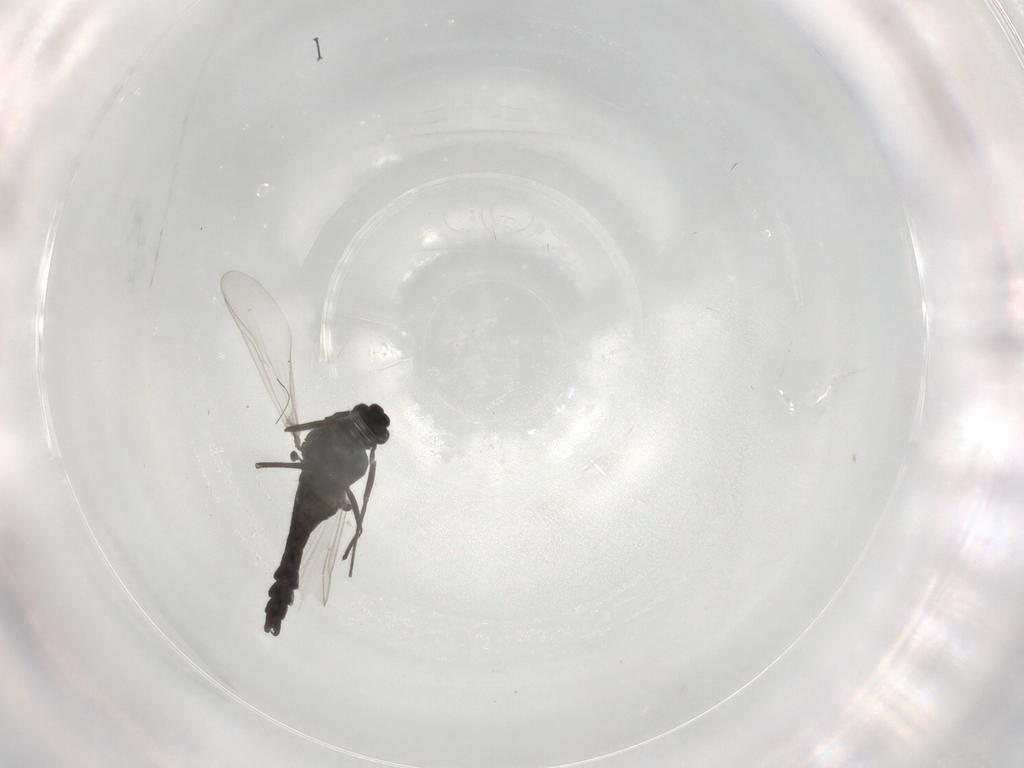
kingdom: Animalia
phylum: Arthropoda
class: Insecta
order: Diptera
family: Chironomidae
